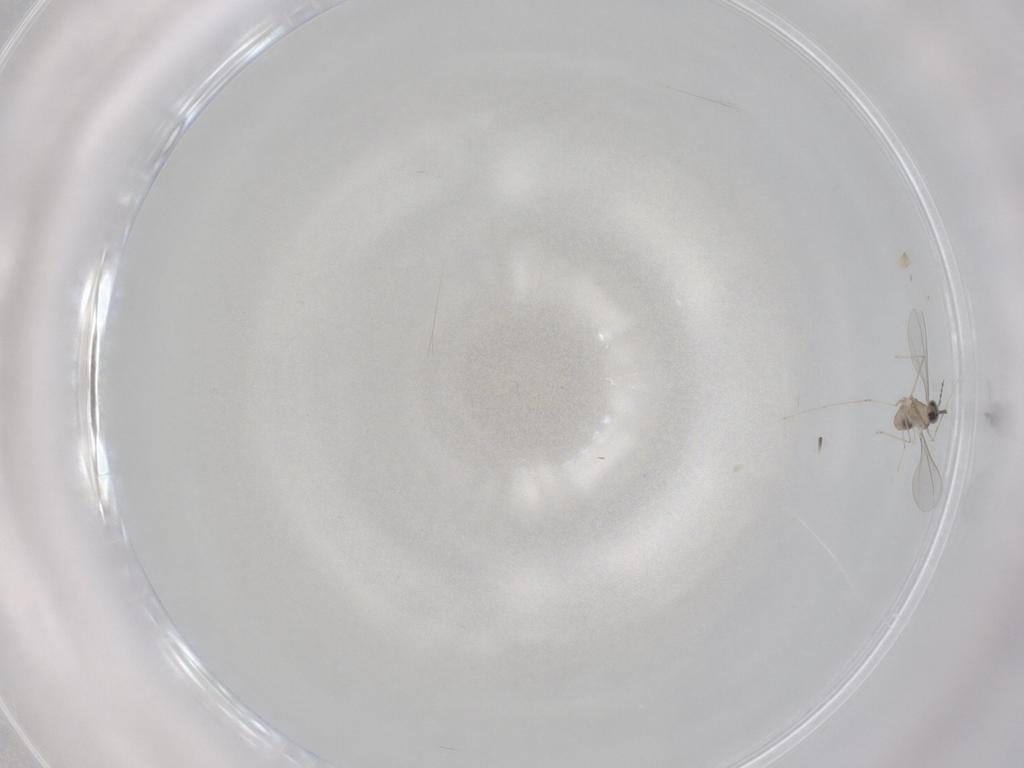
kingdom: Animalia
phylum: Arthropoda
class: Insecta
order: Diptera
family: Cecidomyiidae
